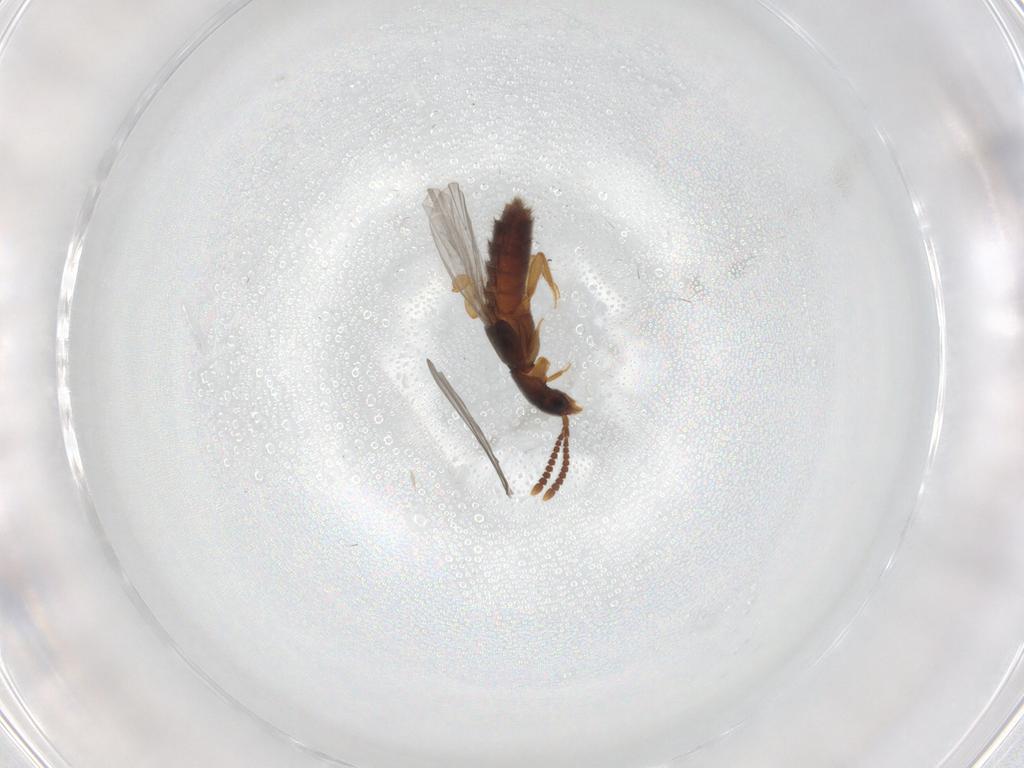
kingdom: Animalia
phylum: Arthropoda
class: Insecta
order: Coleoptera
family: Staphylinidae
